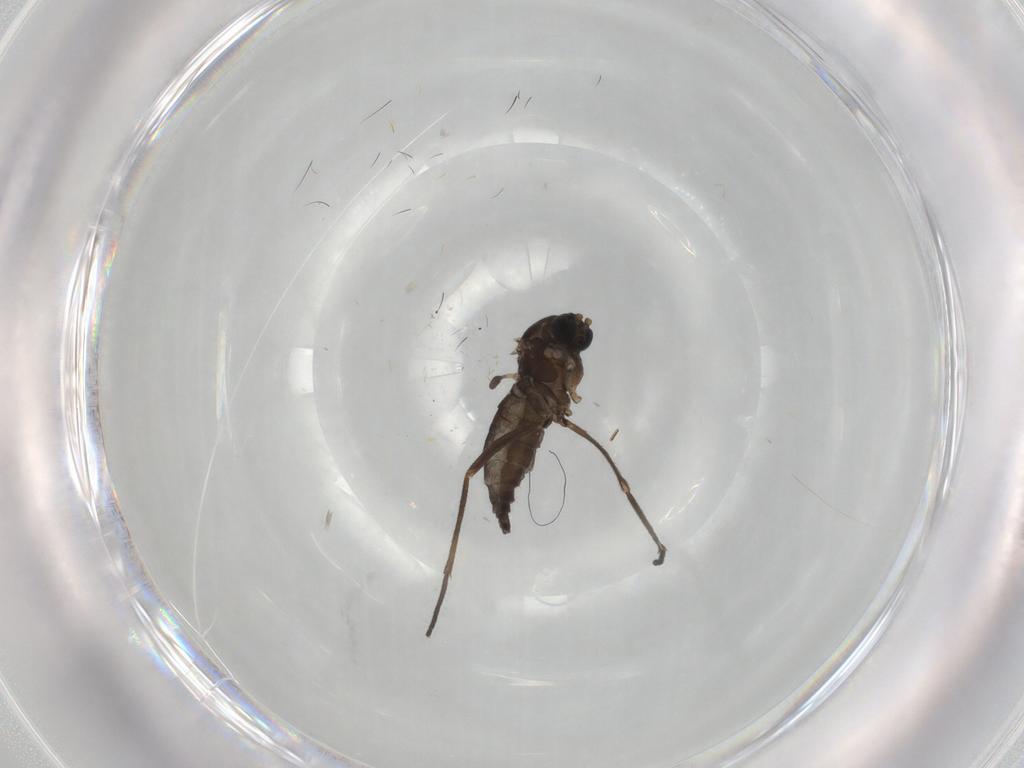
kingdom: Animalia
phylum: Arthropoda
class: Insecta
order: Diptera
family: Sciaridae
